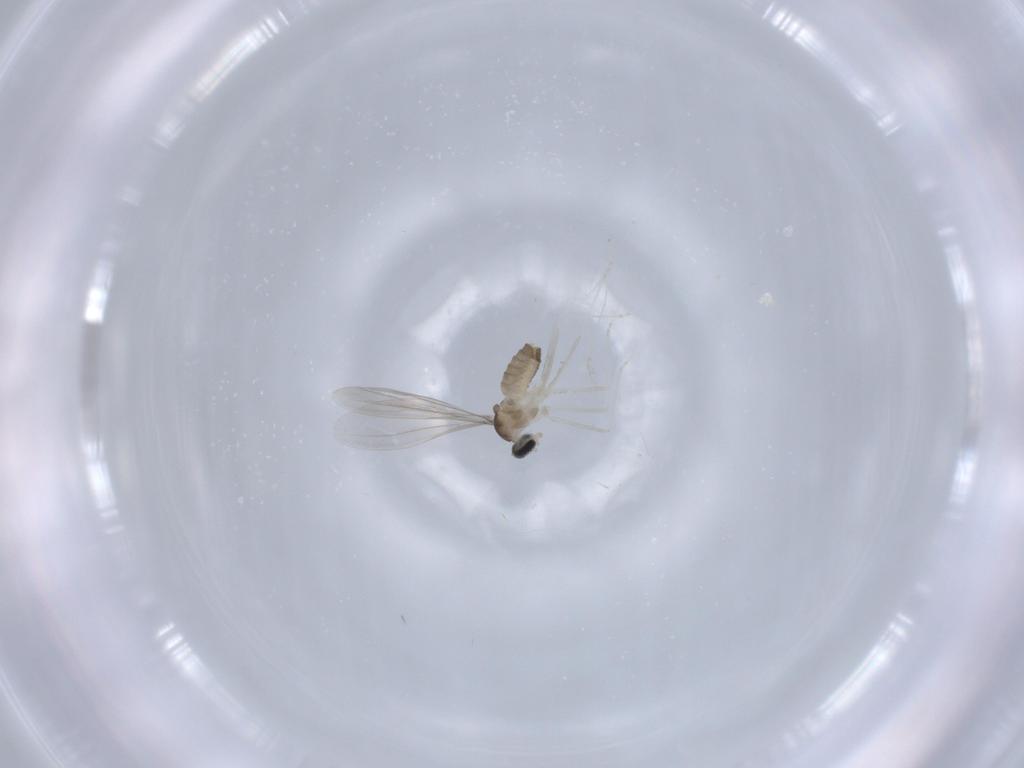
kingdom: Animalia
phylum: Arthropoda
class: Insecta
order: Diptera
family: Cecidomyiidae
